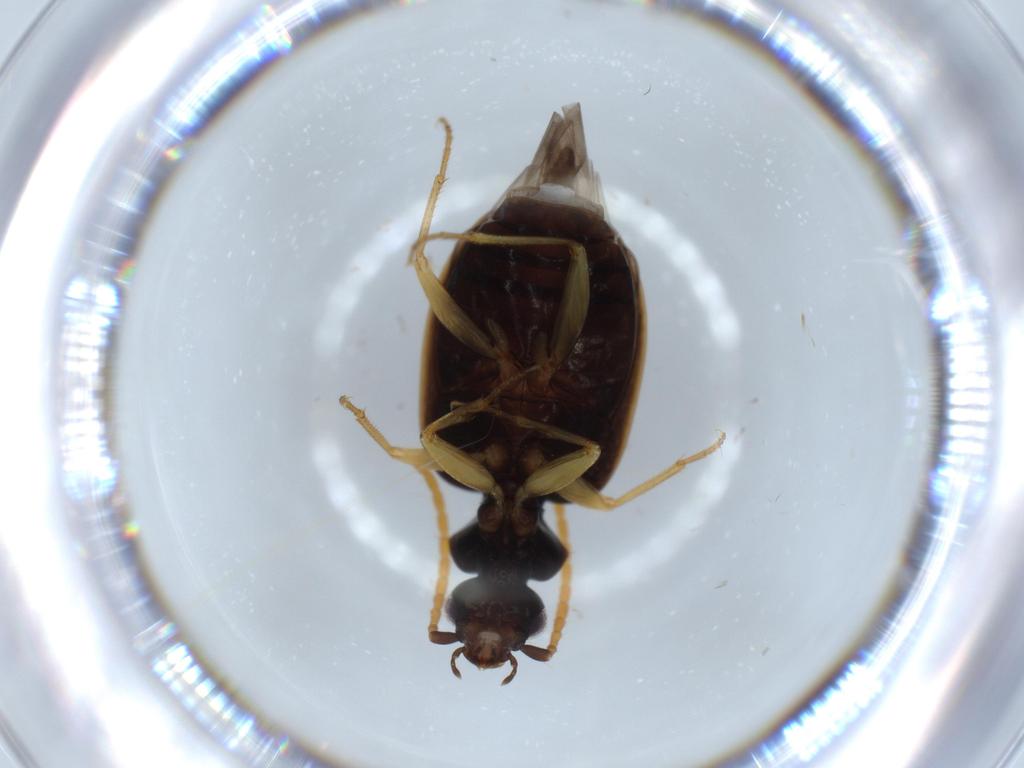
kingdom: Animalia
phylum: Arthropoda
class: Insecta
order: Coleoptera
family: Carabidae
